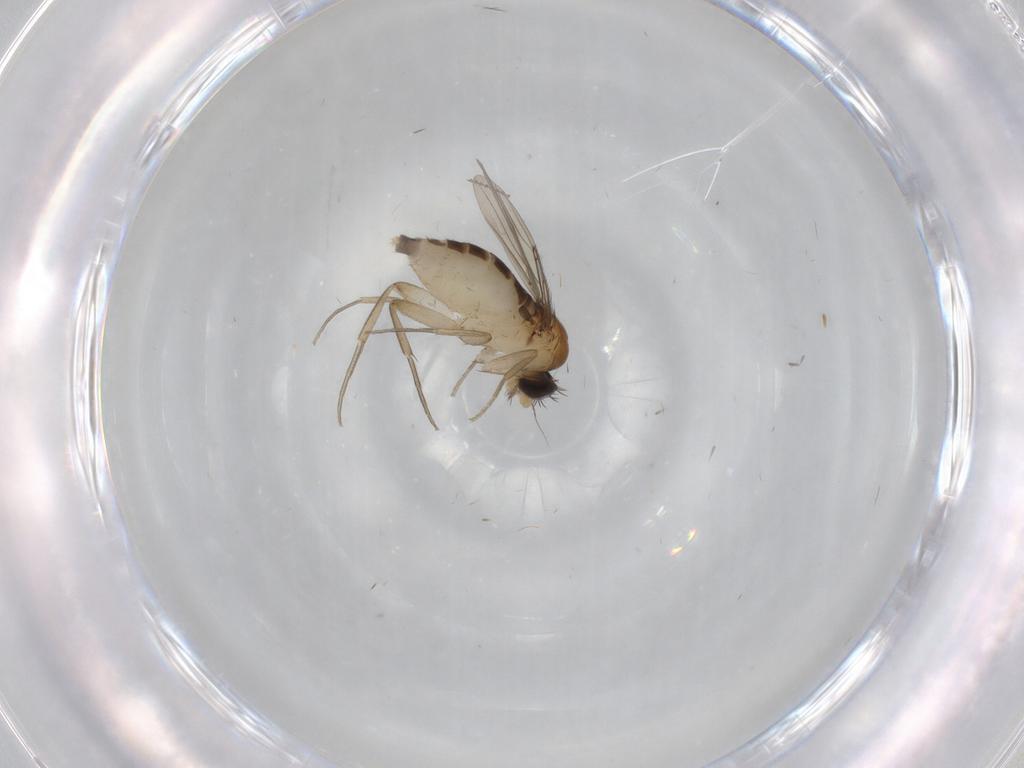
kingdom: Animalia
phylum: Arthropoda
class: Insecta
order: Diptera
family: Phoridae
